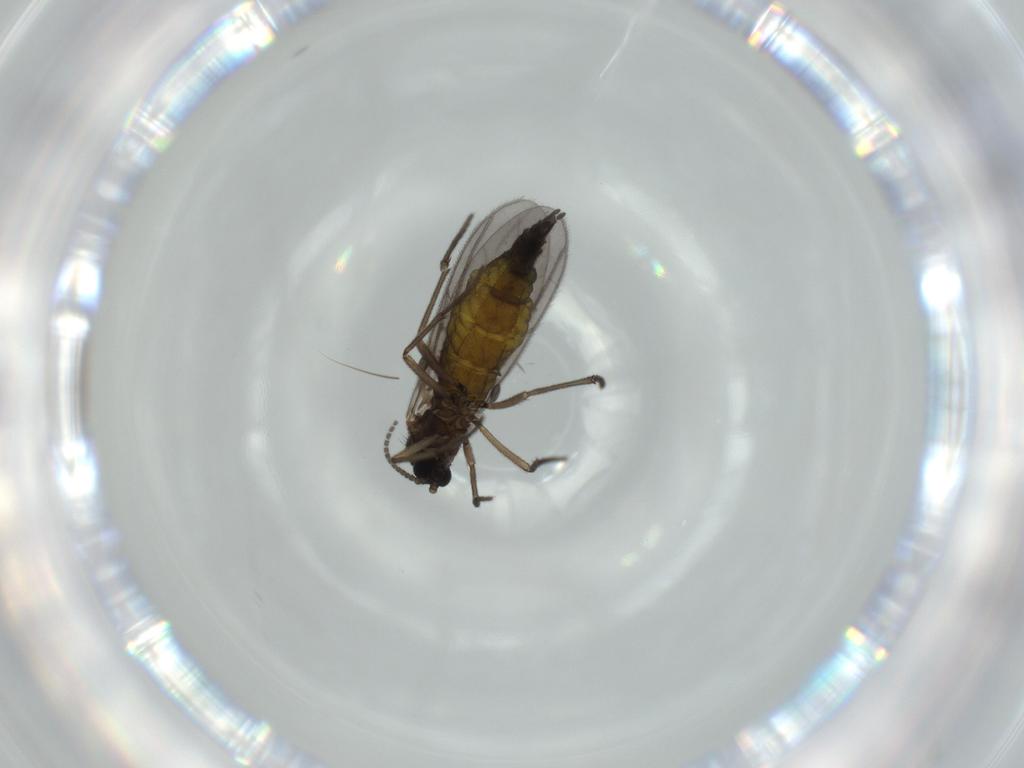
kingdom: Animalia
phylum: Arthropoda
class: Insecta
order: Diptera
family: Sciaridae
